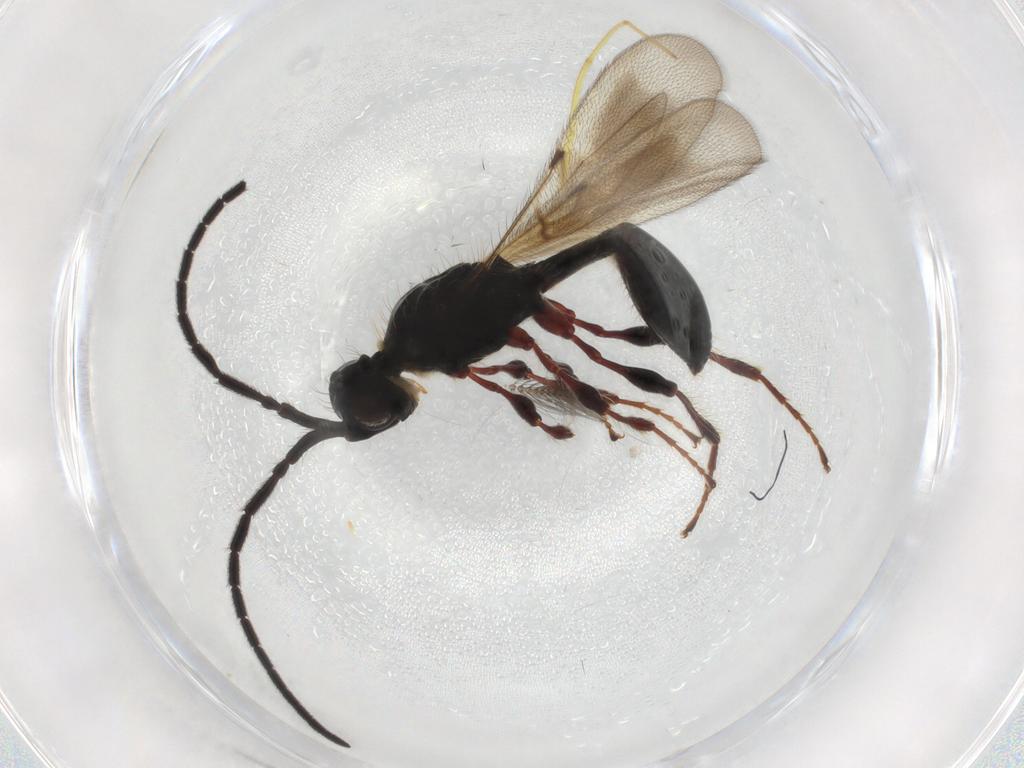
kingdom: Animalia
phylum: Arthropoda
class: Insecta
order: Hymenoptera
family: Diapriidae
